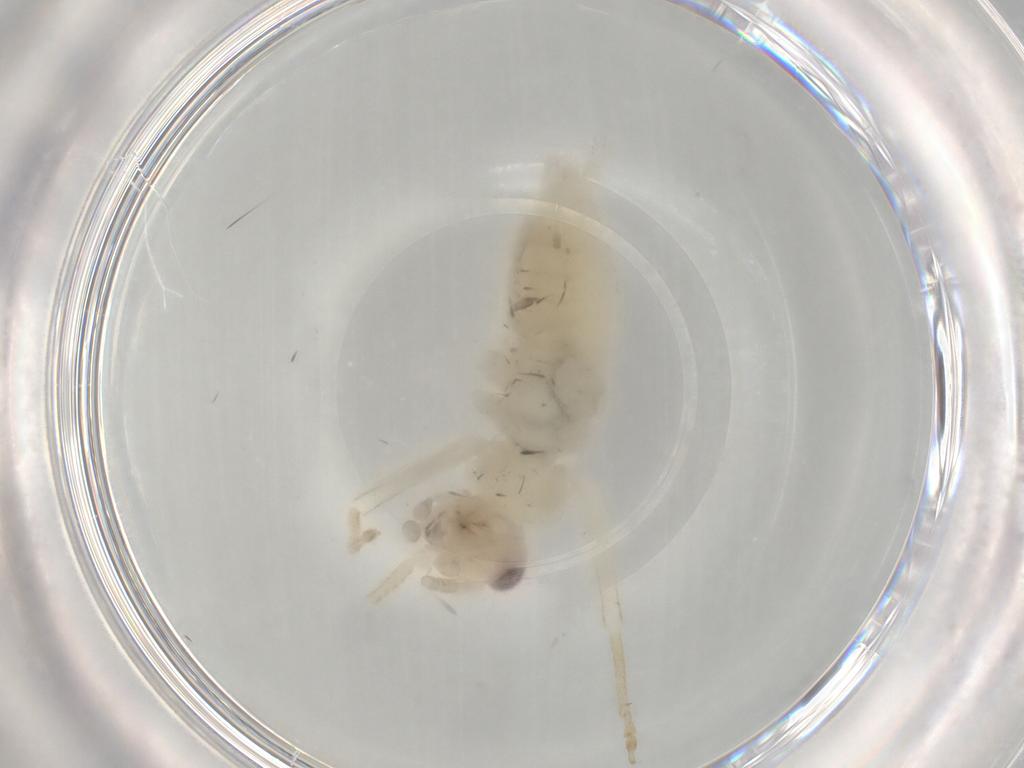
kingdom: Animalia
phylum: Arthropoda
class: Insecta
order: Orthoptera
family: Trigonidiidae
